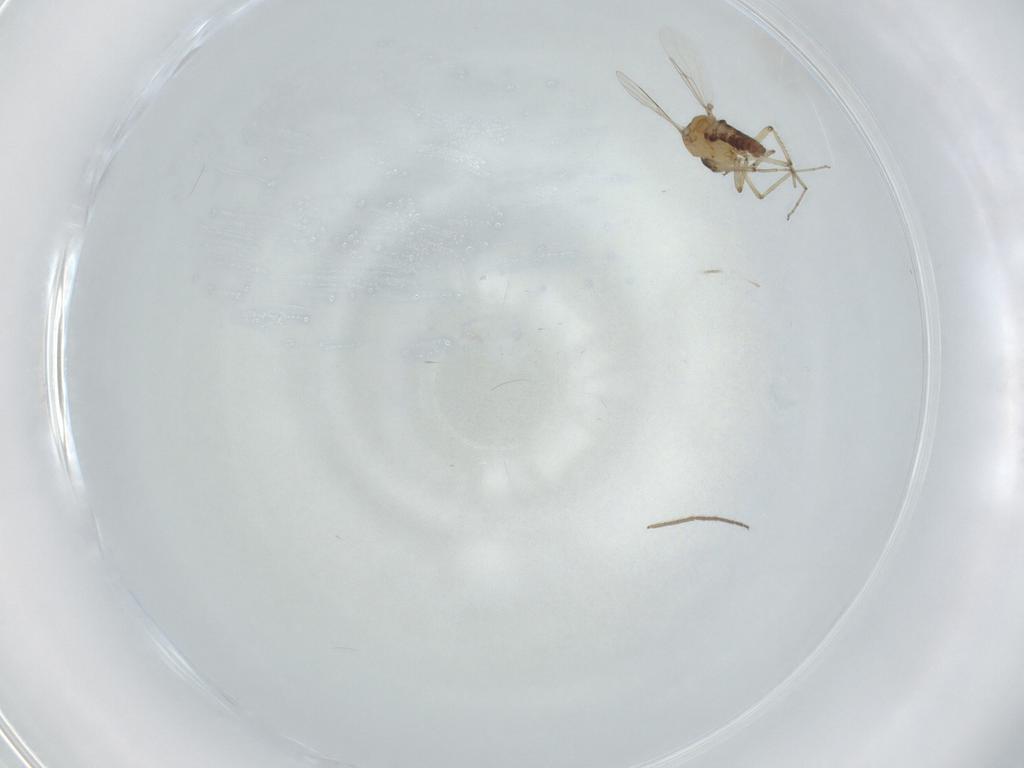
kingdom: Animalia
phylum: Arthropoda
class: Insecta
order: Diptera
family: Ceratopogonidae
